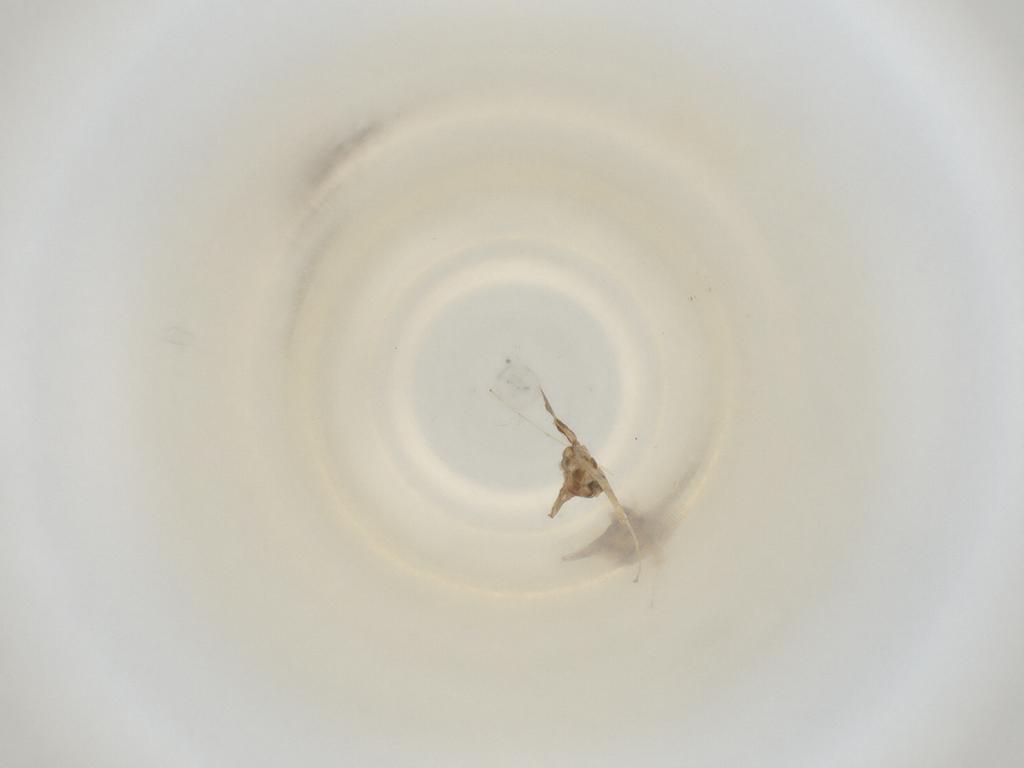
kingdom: Animalia
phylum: Arthropoda
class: Insecta
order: Diptera
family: Cecidomyiidae
